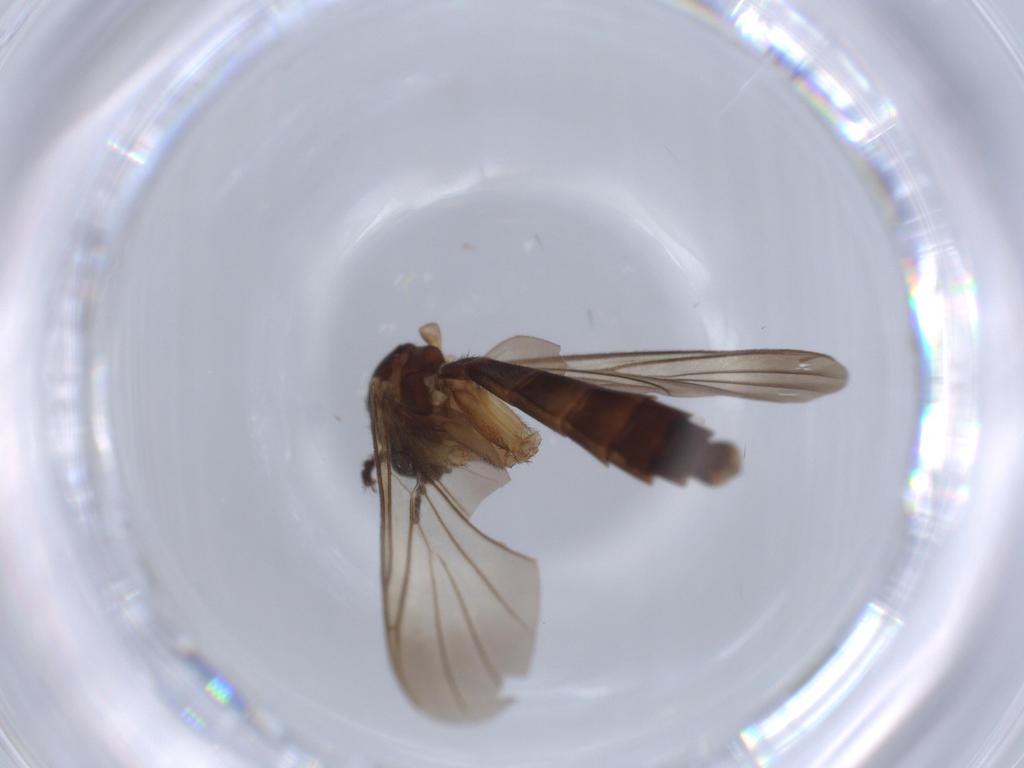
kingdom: Animalia
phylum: Arthropoda
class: Insecta
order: Diptera
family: Keroplatidae
